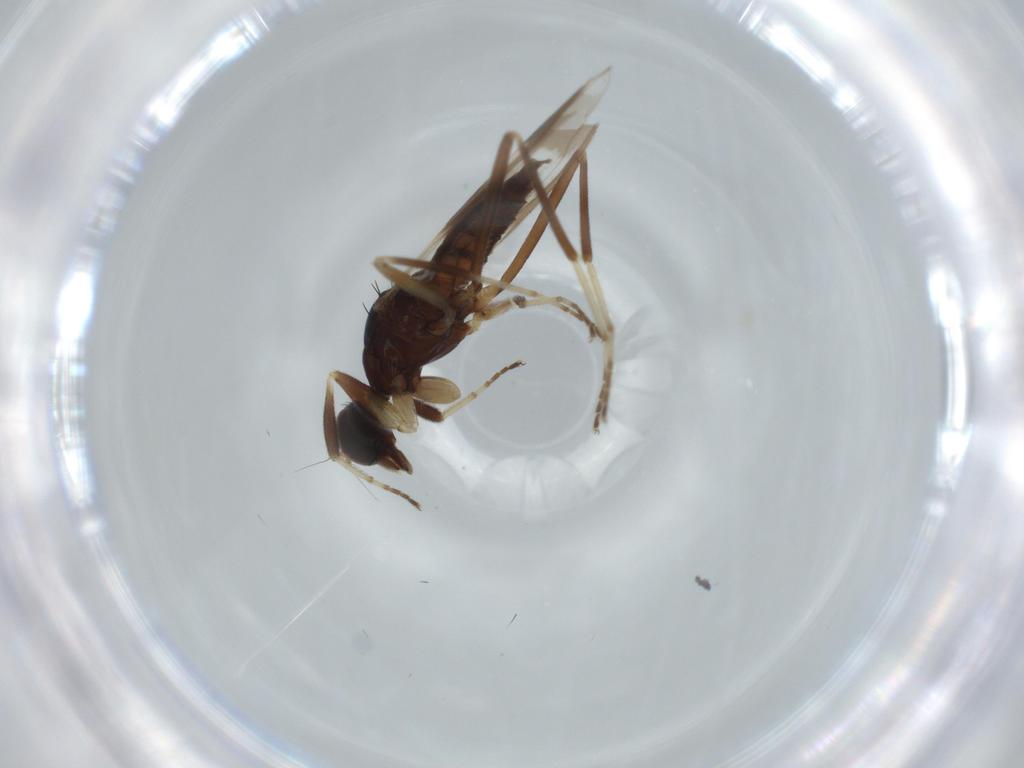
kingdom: Animalia
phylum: Arthropoda
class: Insecta
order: Diptera
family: Hybotidae
